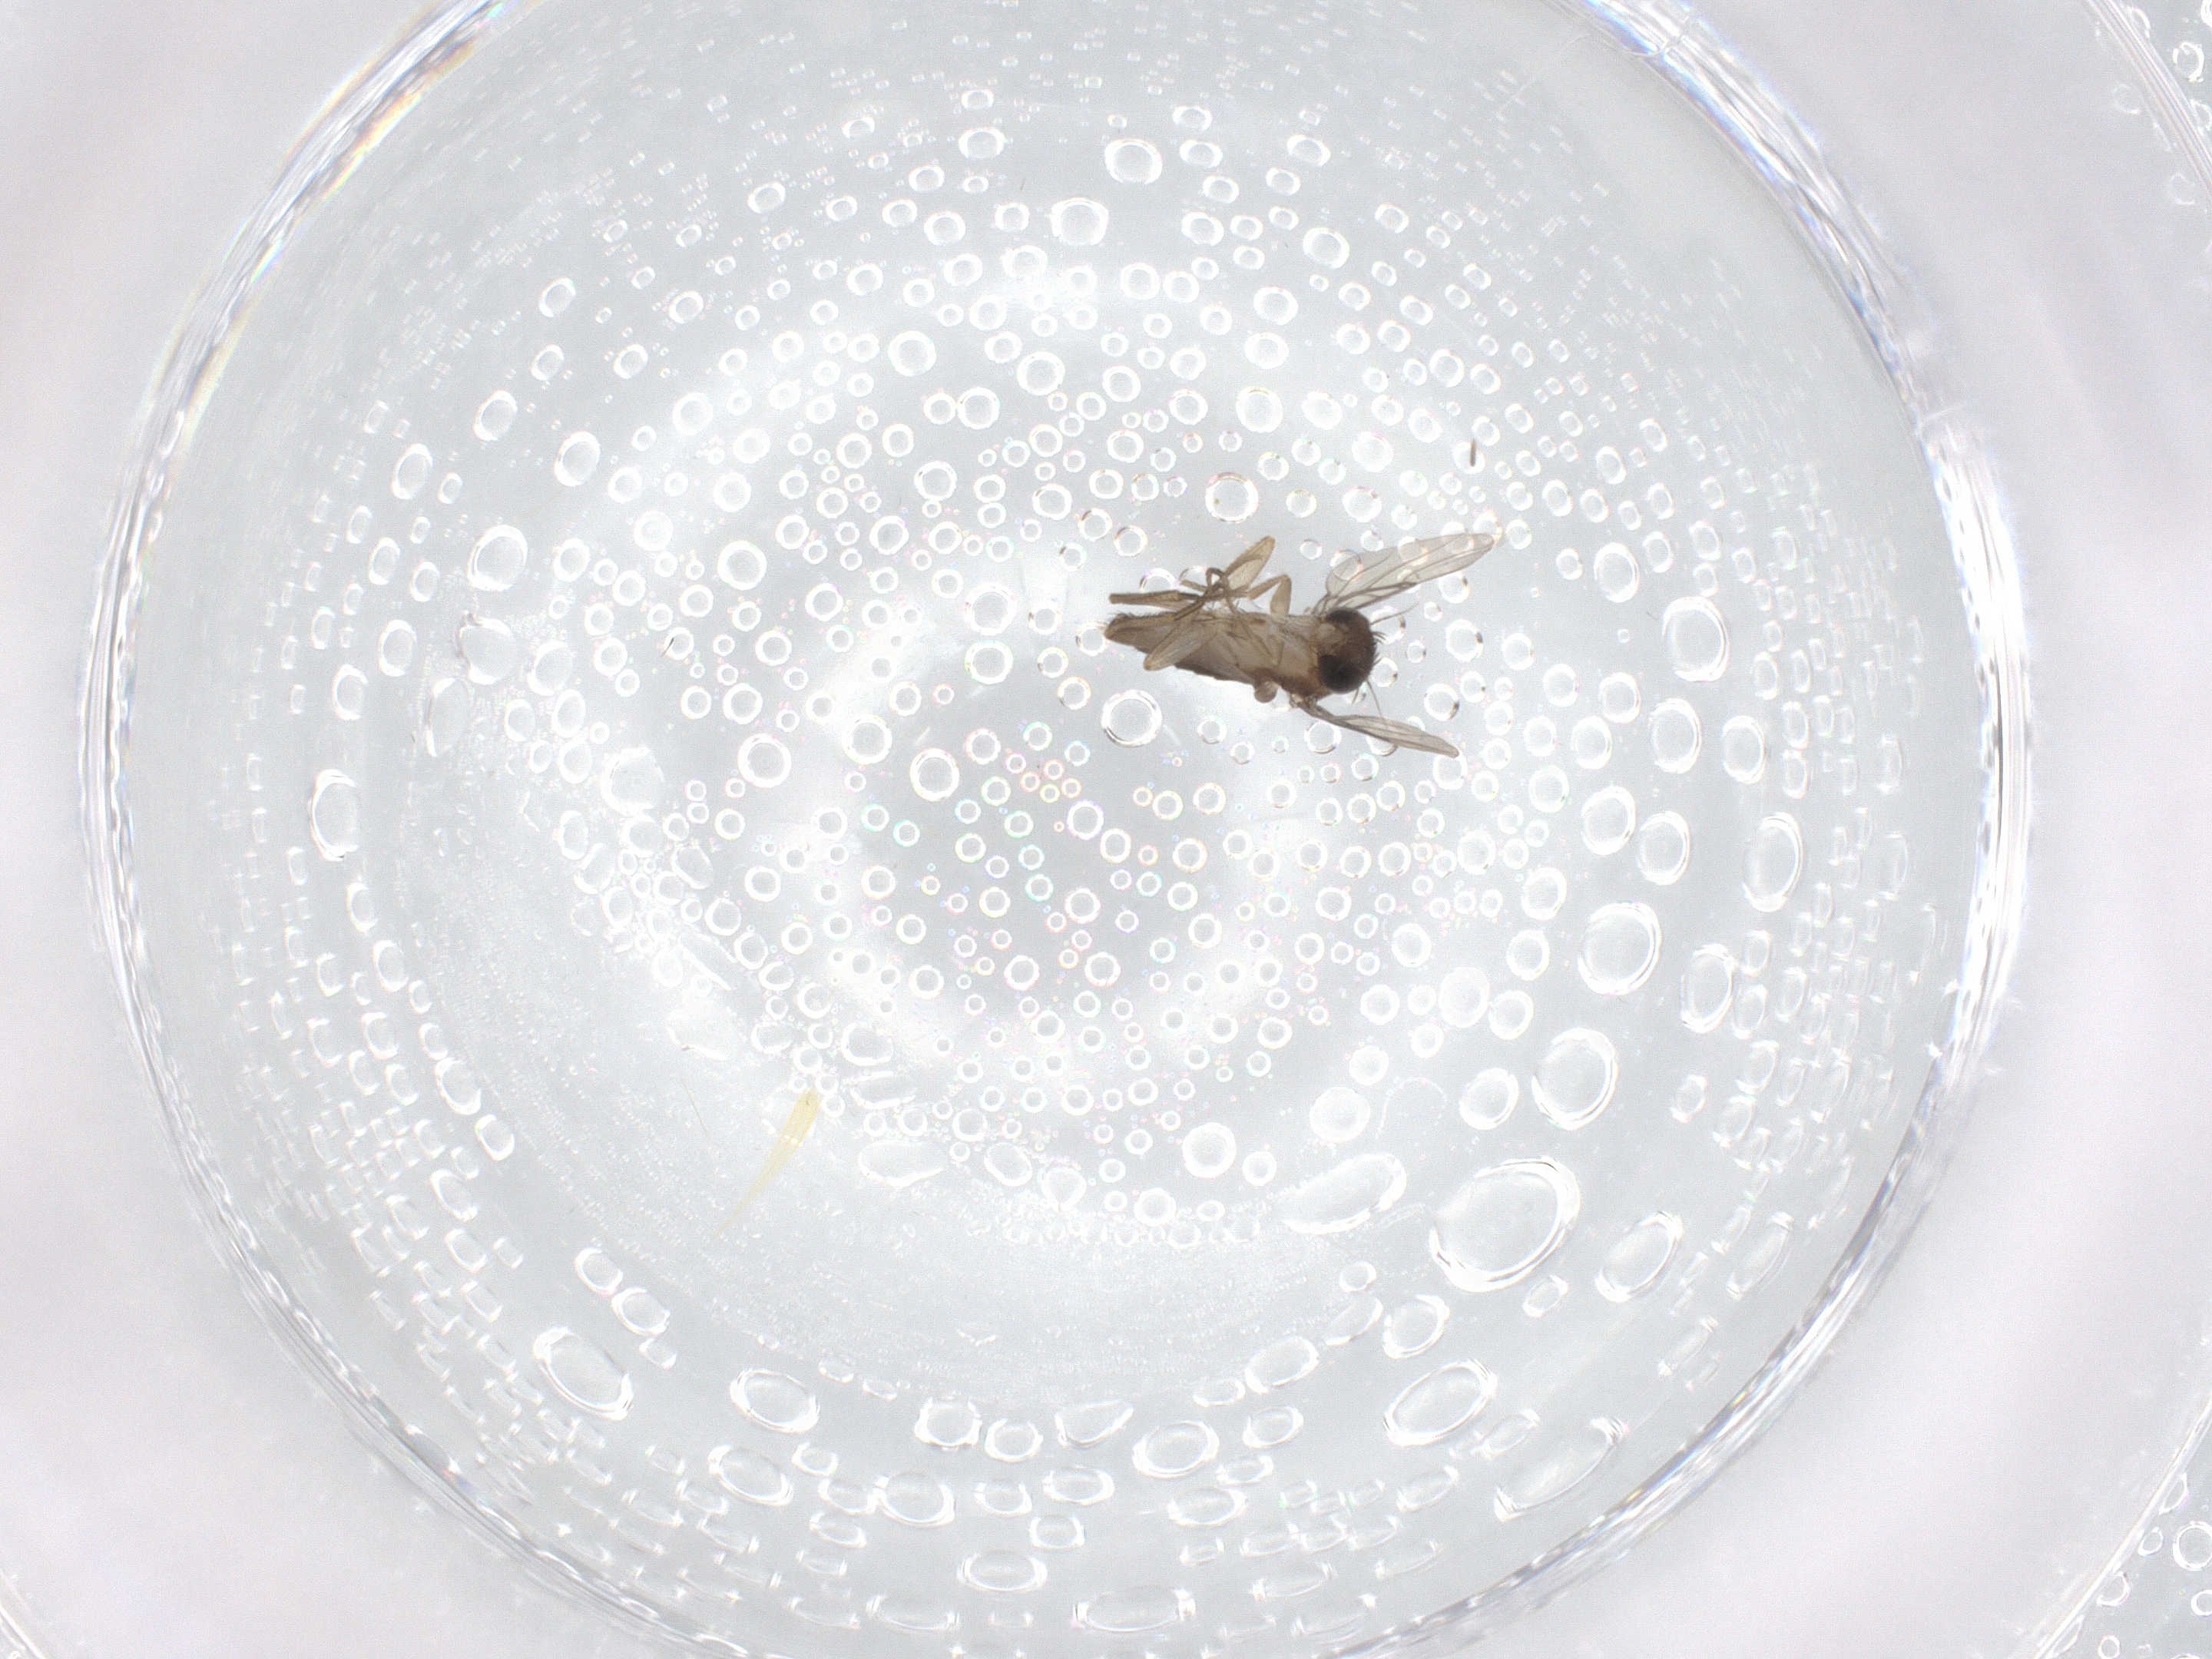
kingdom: Animalia
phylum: Arthropoda
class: Insecta
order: Diptera
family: Phoridae
